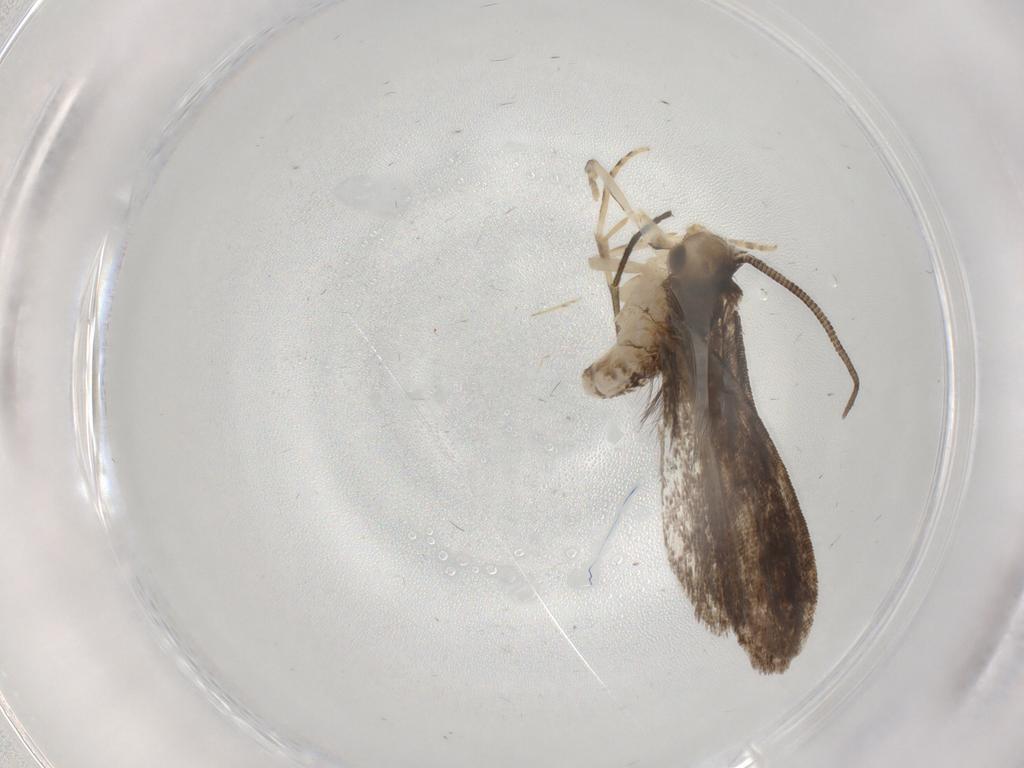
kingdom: Animalia
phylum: Arthropoda
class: Insecta
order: Lepidoptera
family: Dryadaulidae
